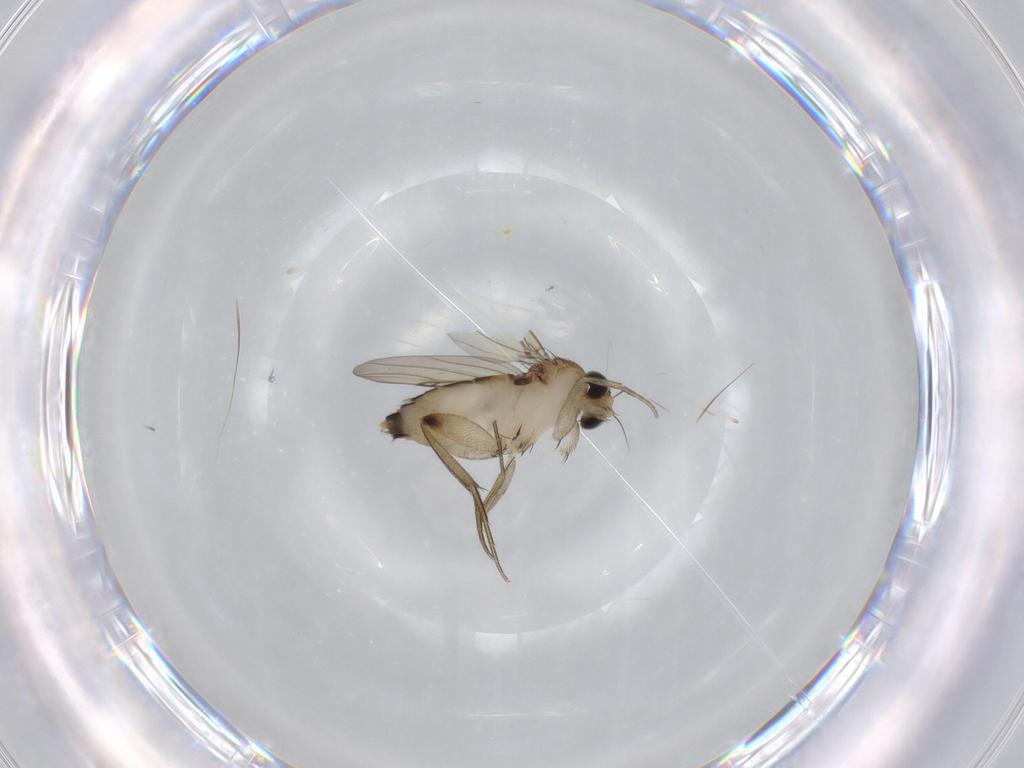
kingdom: Animalia
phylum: Arthropoda
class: Insecta
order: Diptera
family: Phoridae
